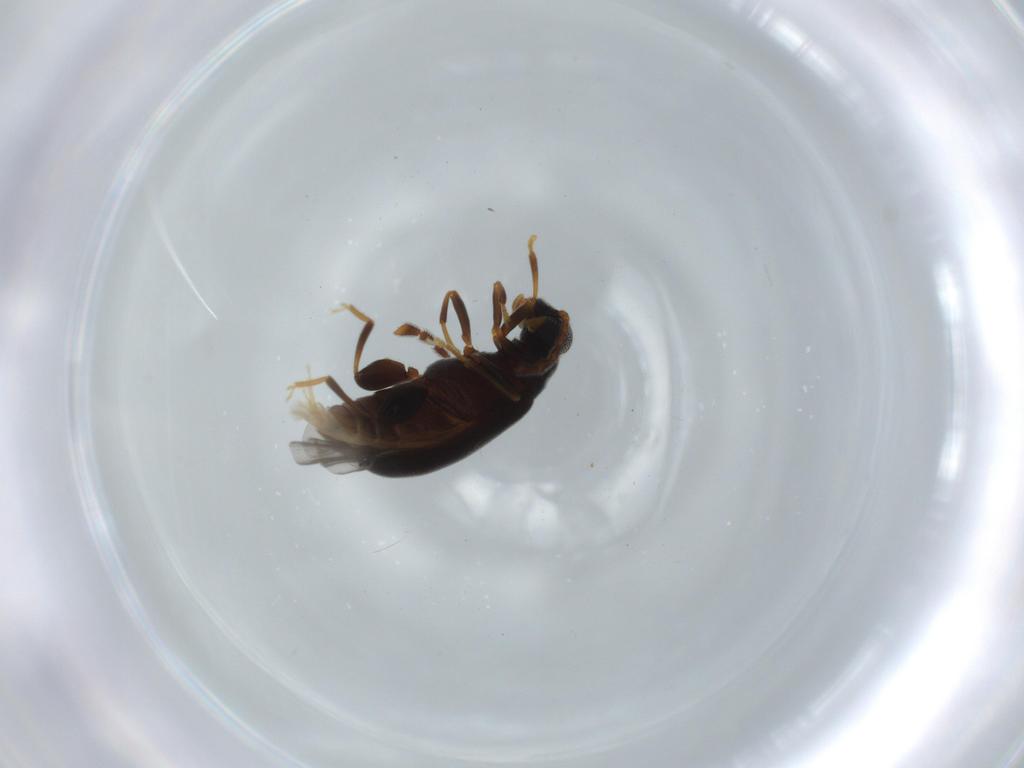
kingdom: Animalia
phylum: Arthropoda
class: Insecta
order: Coleoptera
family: Aderidae
